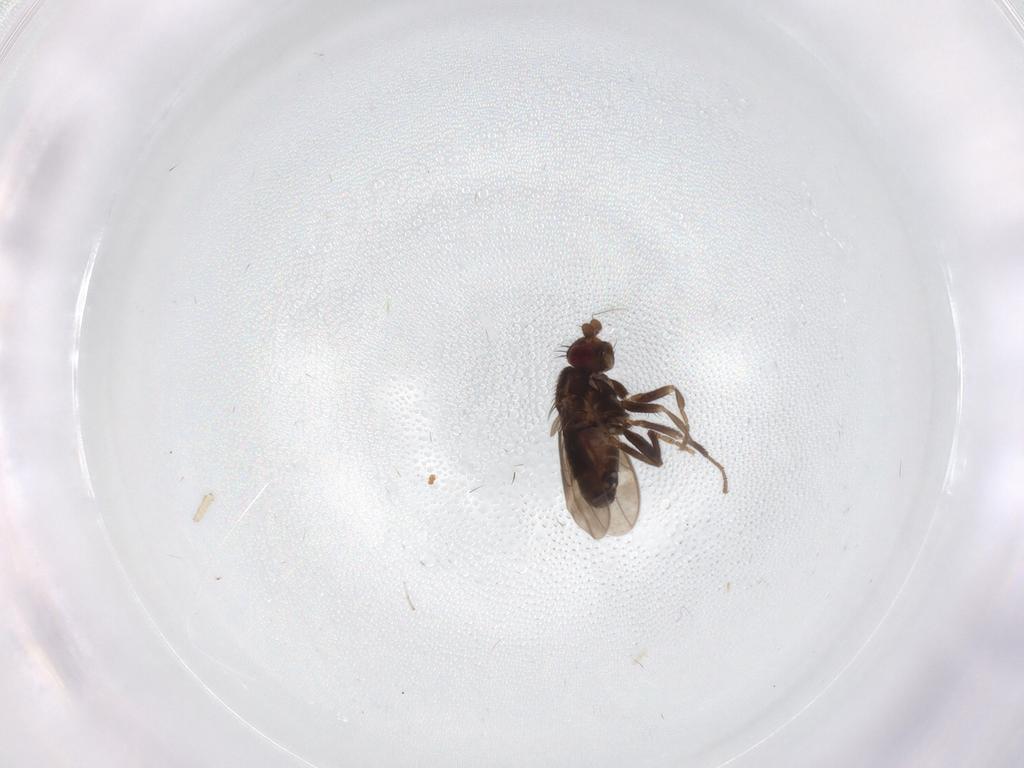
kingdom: Animalia
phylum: Arthropoda
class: Insecta
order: Diptera
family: Sphaeroceridae
